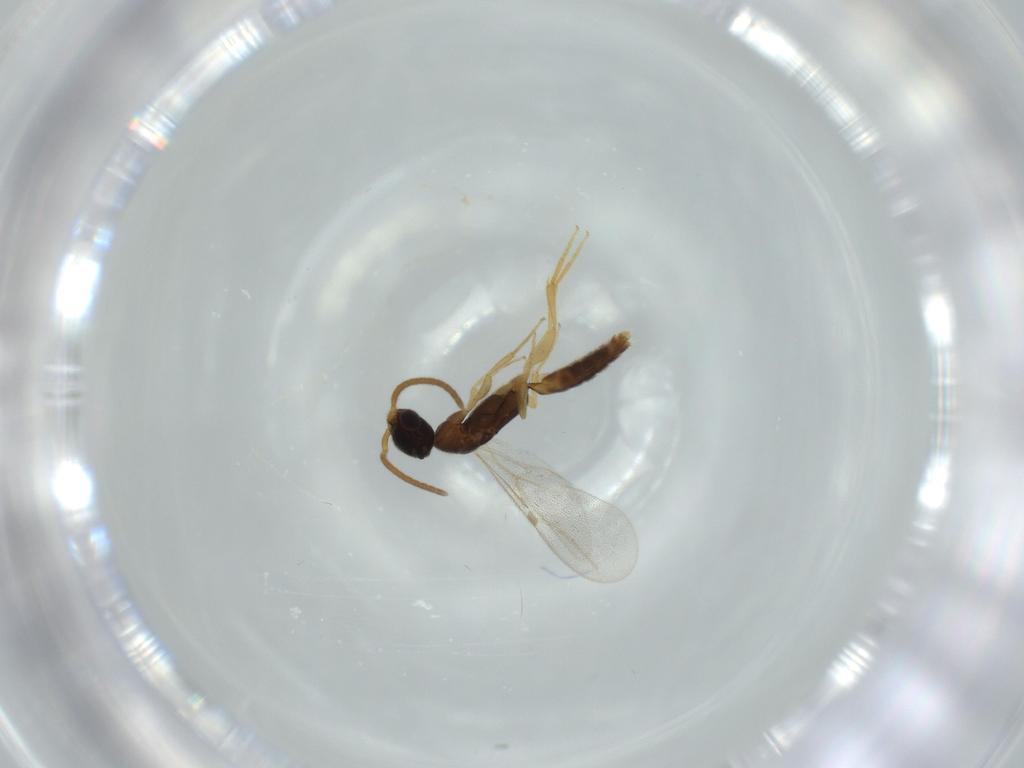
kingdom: Animalia
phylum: Arthropoda
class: Insecta
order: Hymenoptera
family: Bethylidae
